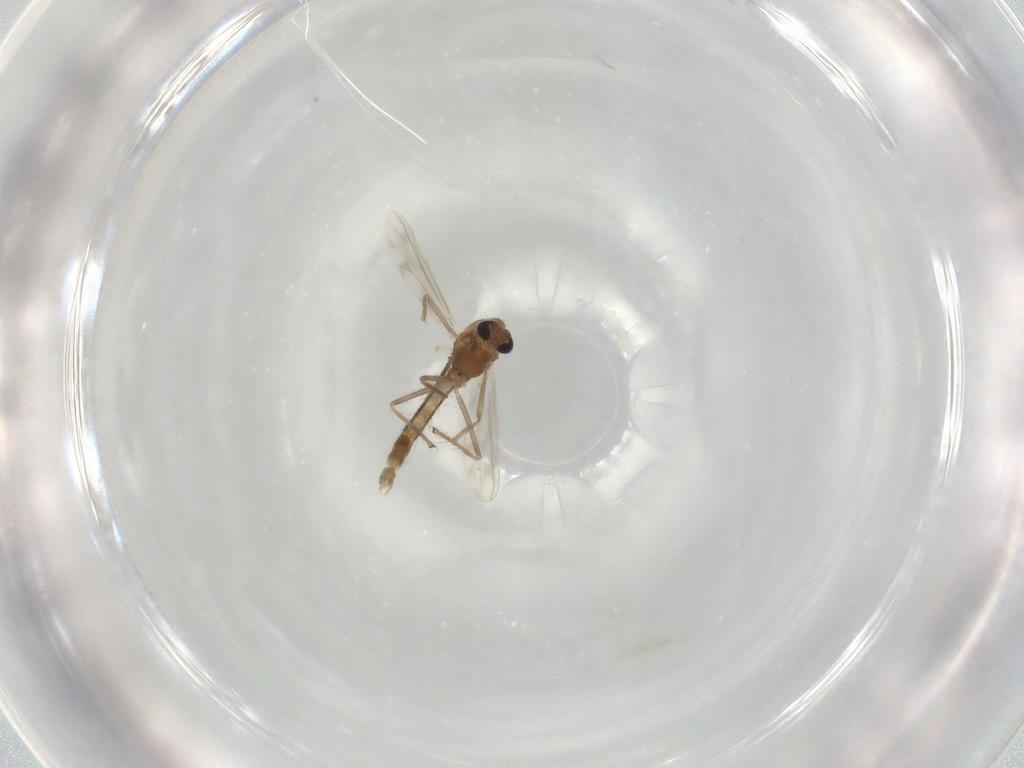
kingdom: Animalia
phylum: Arthropoda
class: Insecta
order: Diptera
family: Chironomidae
